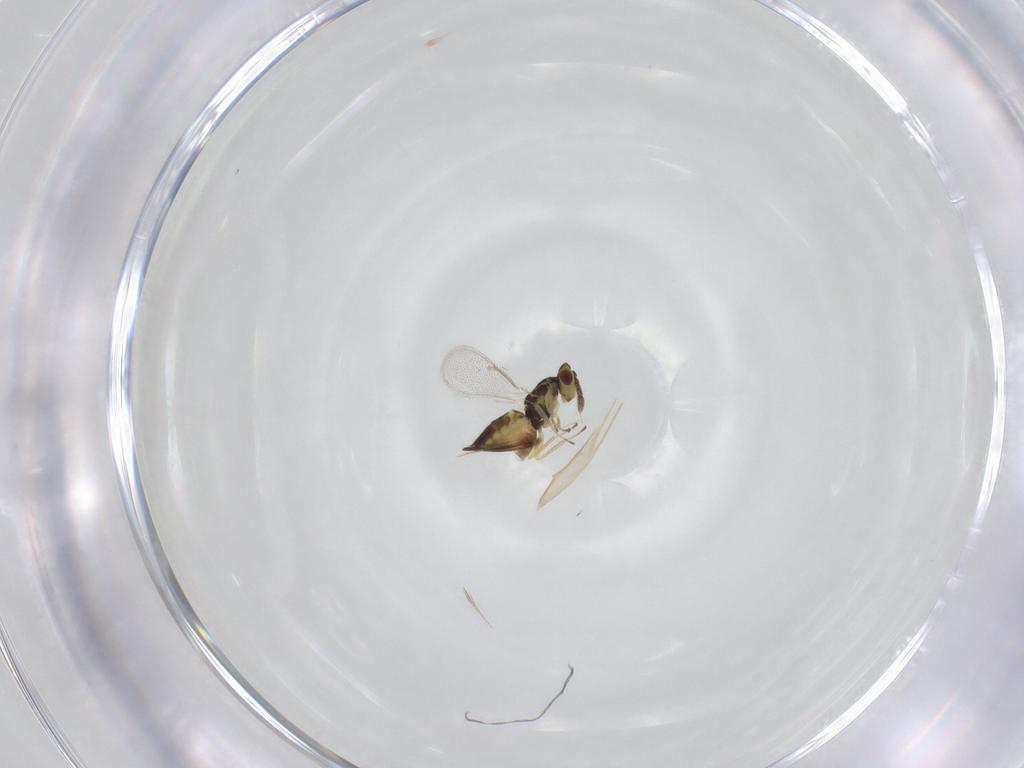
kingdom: Animalia
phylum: Arthropoda
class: Insecta
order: Hymenoptera
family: Eulophidae
